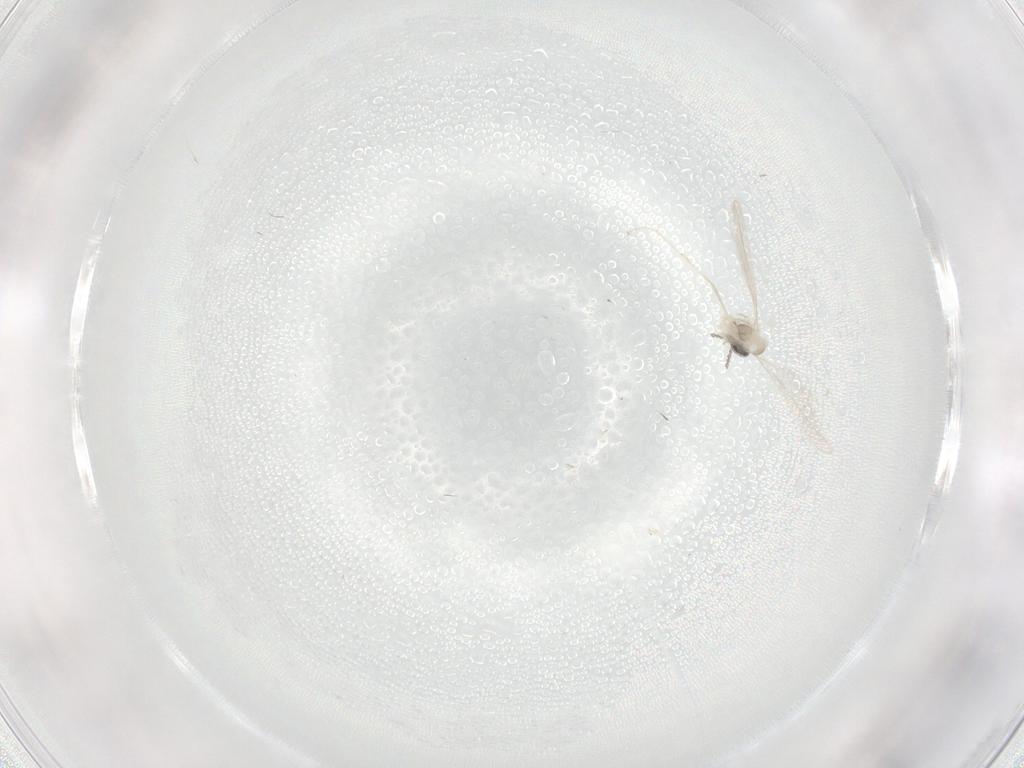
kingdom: Animalia
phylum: Arthropoda
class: Insecta
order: Diptera
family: Cecidomyiidae
